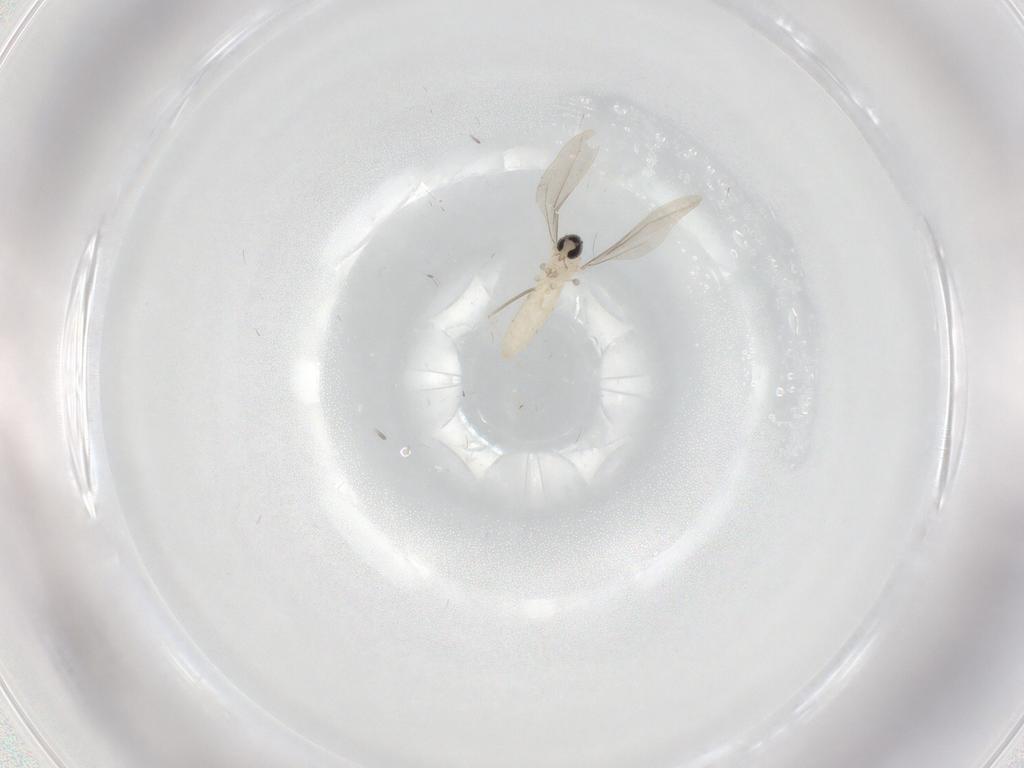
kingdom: Animalia
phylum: Arthropoda
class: Insecta
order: Diptera
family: Cecidomyiidae
